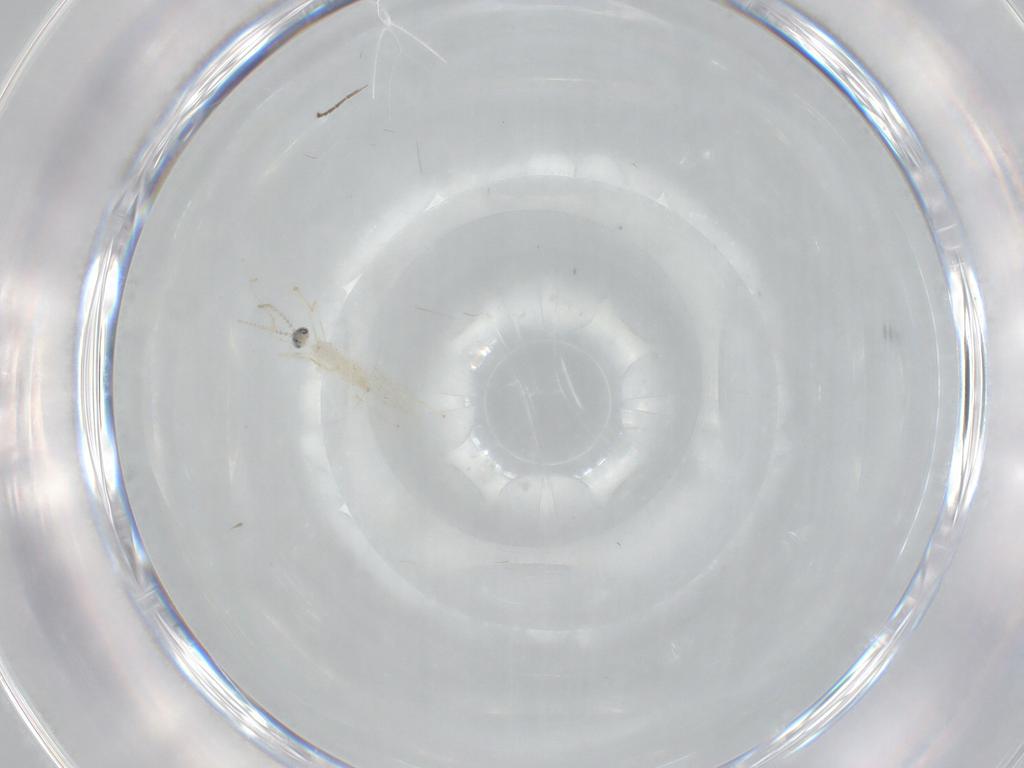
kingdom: Animalia
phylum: Arthropoda
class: Insecta
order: Diptera
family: Cecidomyiidae
